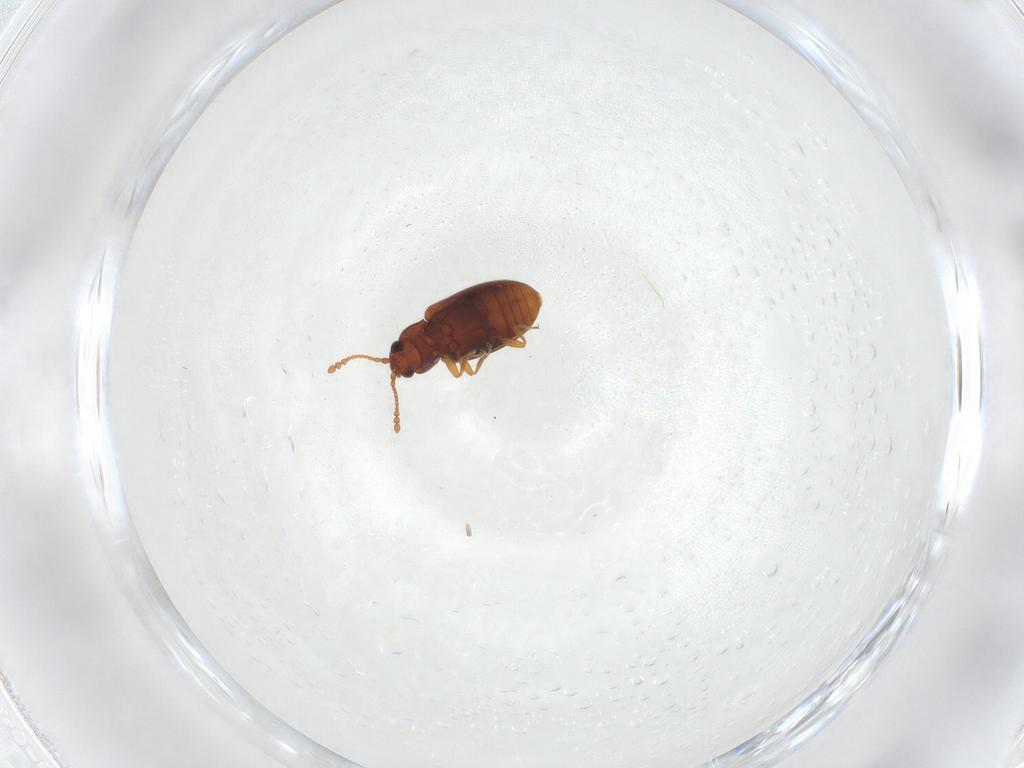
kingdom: Animalia
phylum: Arthropoda
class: Insecta
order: Coleoptera
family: Cryptophagidae
